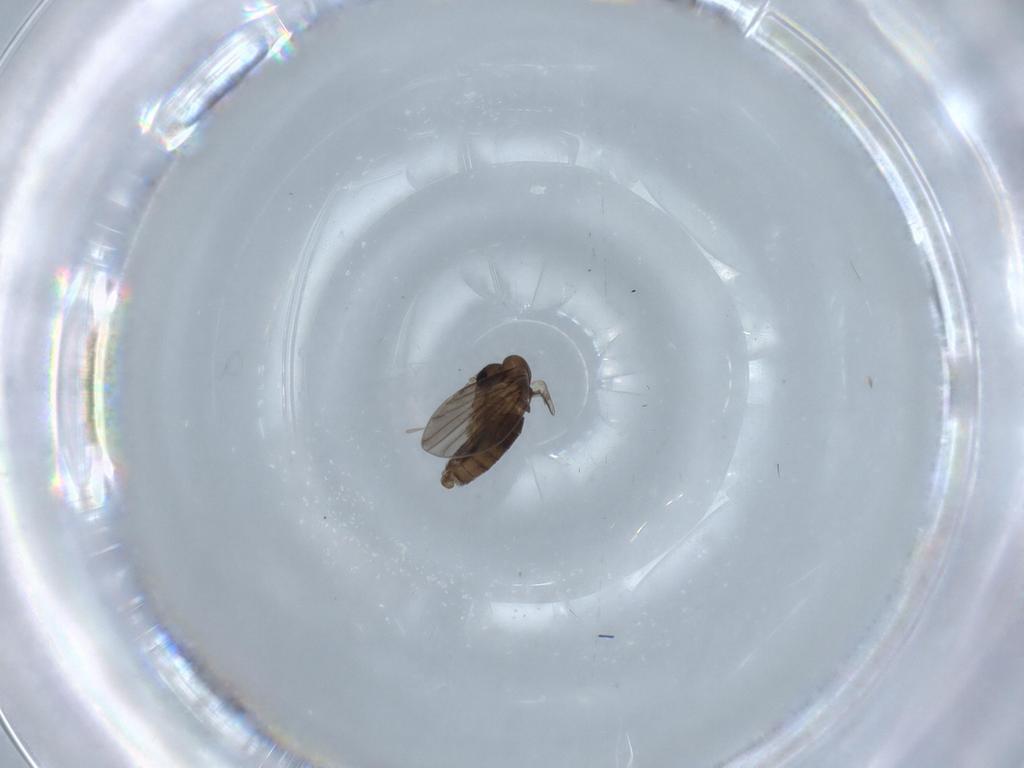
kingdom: Animalia
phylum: Arthropoda
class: Insecta
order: Diptera
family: Psychodidae
